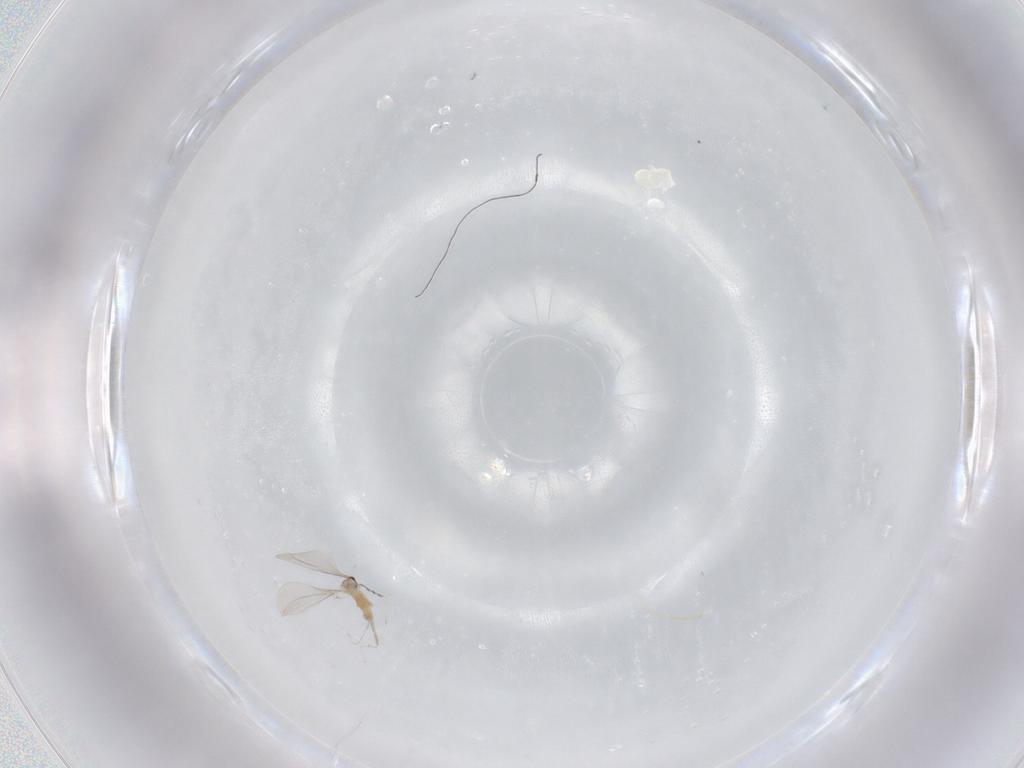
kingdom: Animalia
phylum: Arthropoda
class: Insecta
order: Diptera
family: Cecidomyiidae
